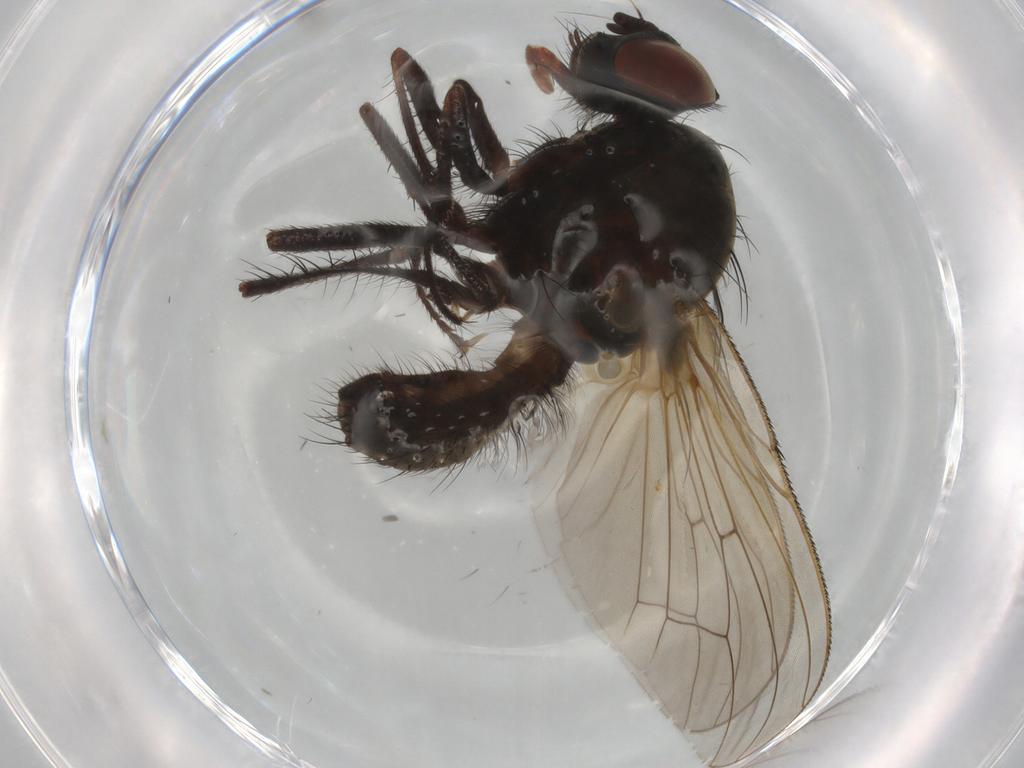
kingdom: Animalia
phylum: Arthropoda
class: Insecta
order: Diptera
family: Anthomyiidae
